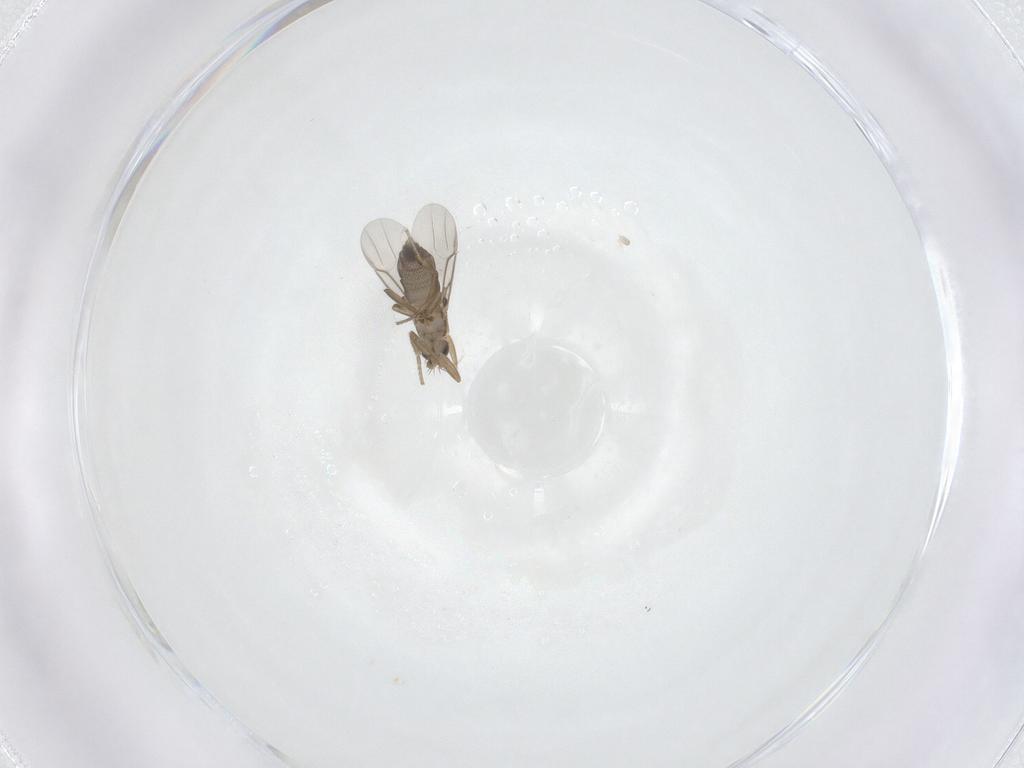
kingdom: Animalia
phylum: Arthropoda
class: Insecta
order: Diptera
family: Phoridae
